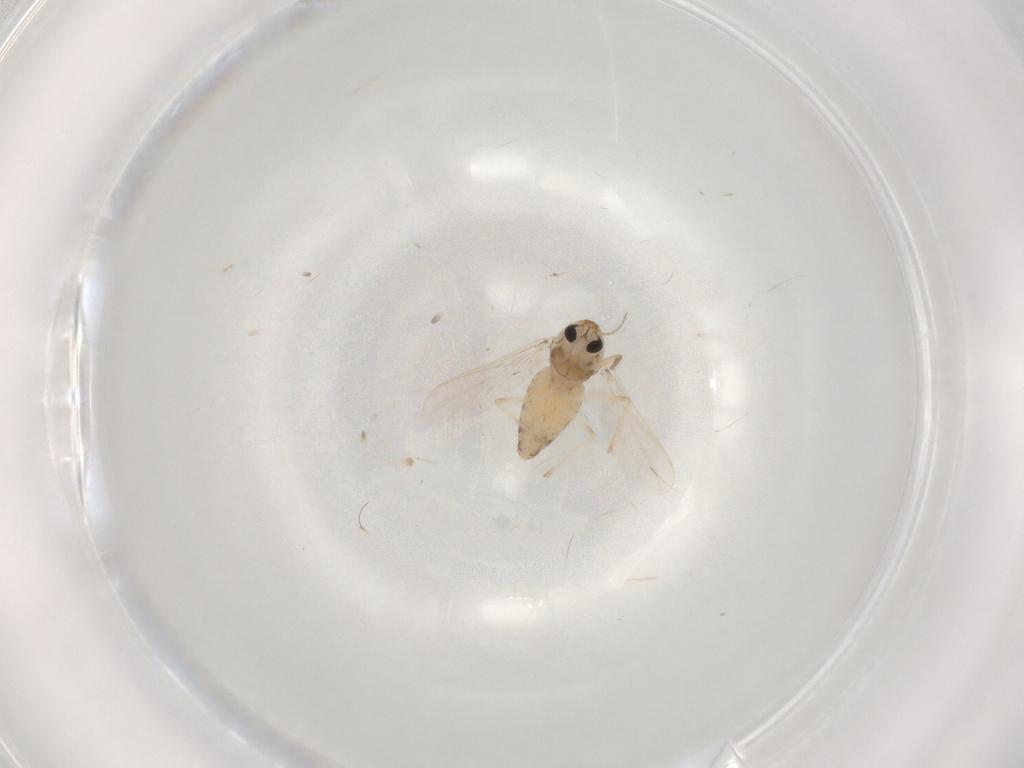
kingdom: Animalia
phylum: Arthropoda
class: Insecta
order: Diptera
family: Chironomidae
